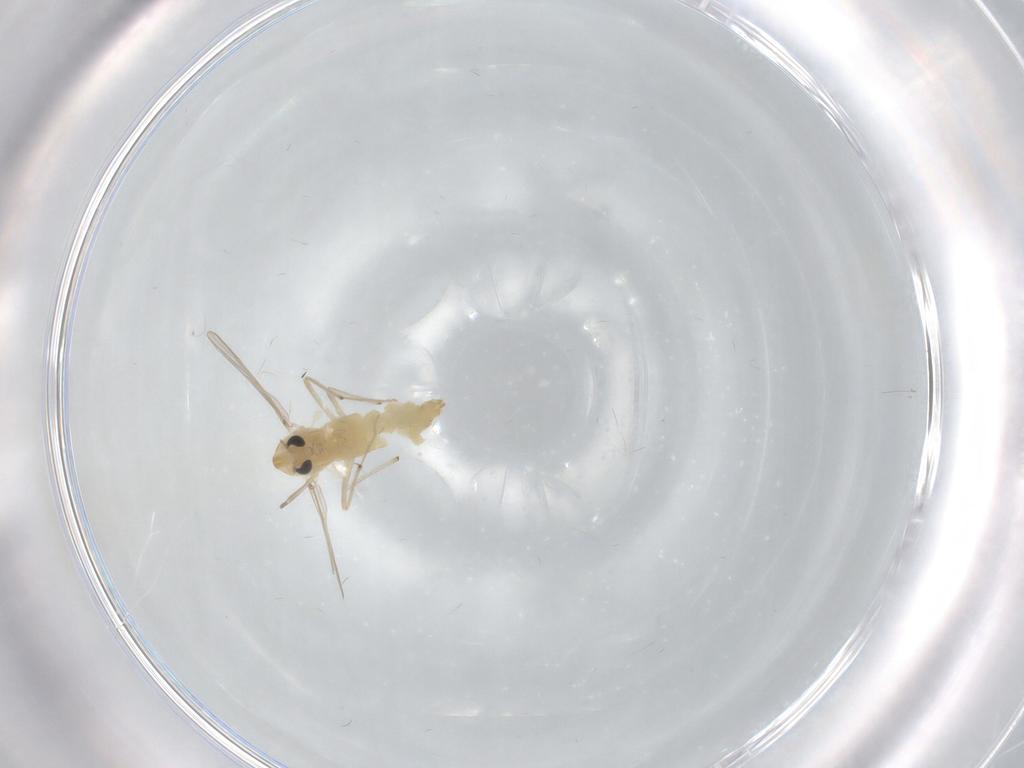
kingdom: Animalia
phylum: Arthropoda
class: Insecta
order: Diptera
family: Chironomidae
